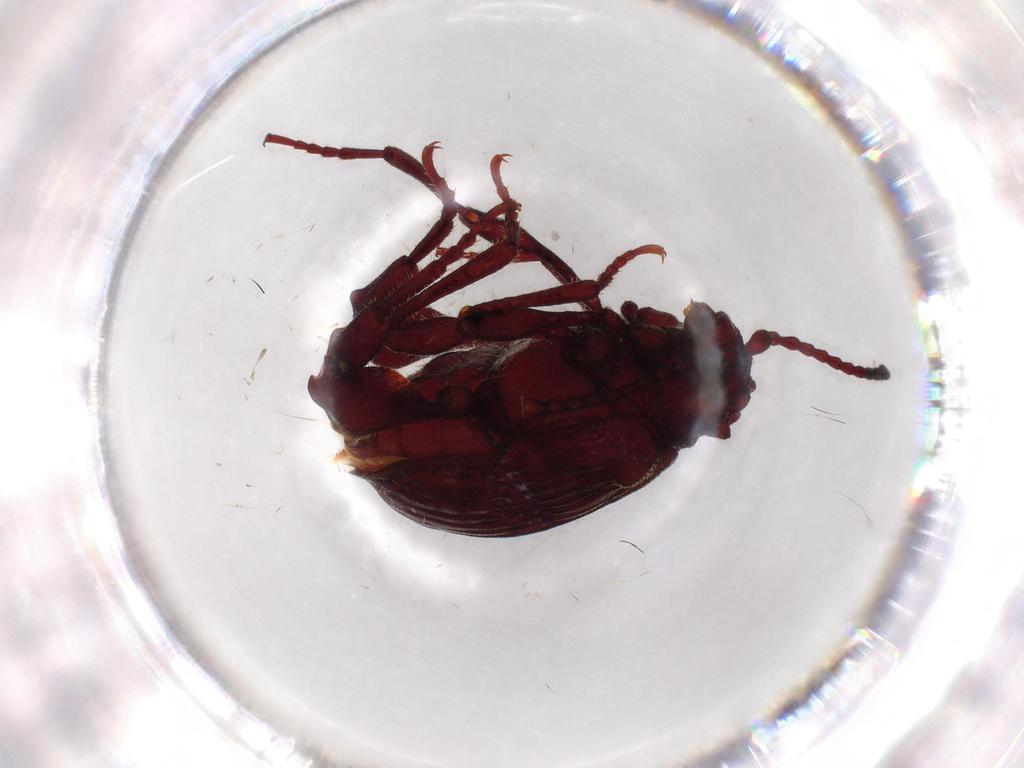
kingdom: Animalia
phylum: Arthropoda
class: Insecta
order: Coleoptera
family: Ptinidae
